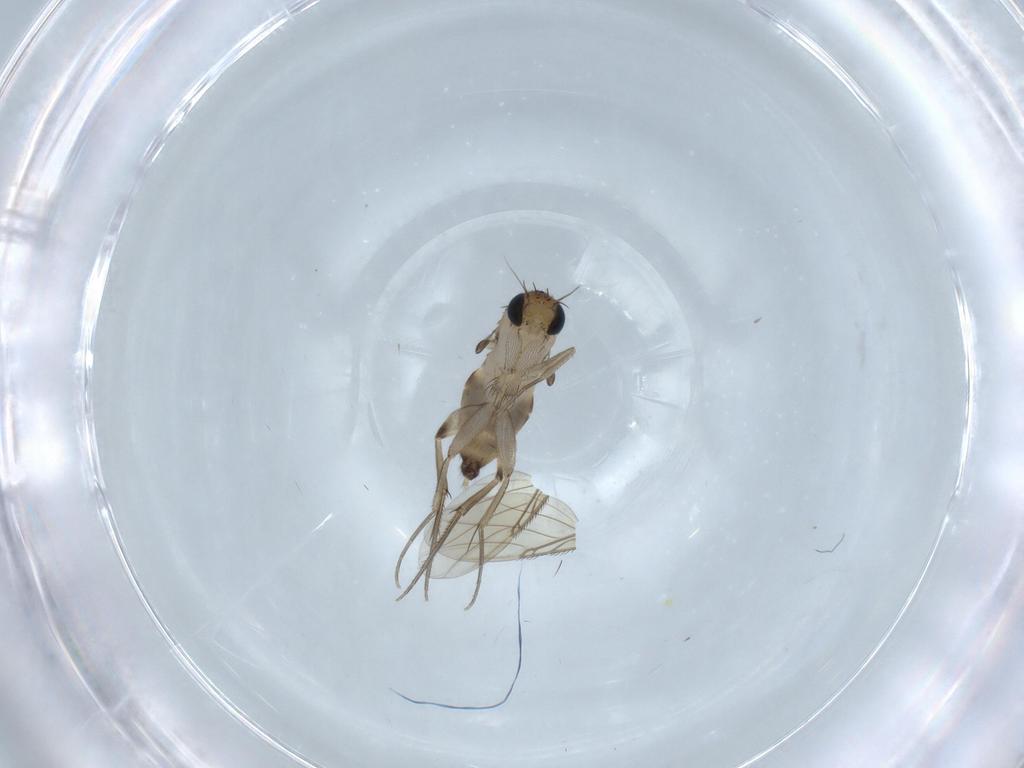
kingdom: Animalia
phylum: Arthropoda
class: Insecta
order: Diptera
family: Phoridae
